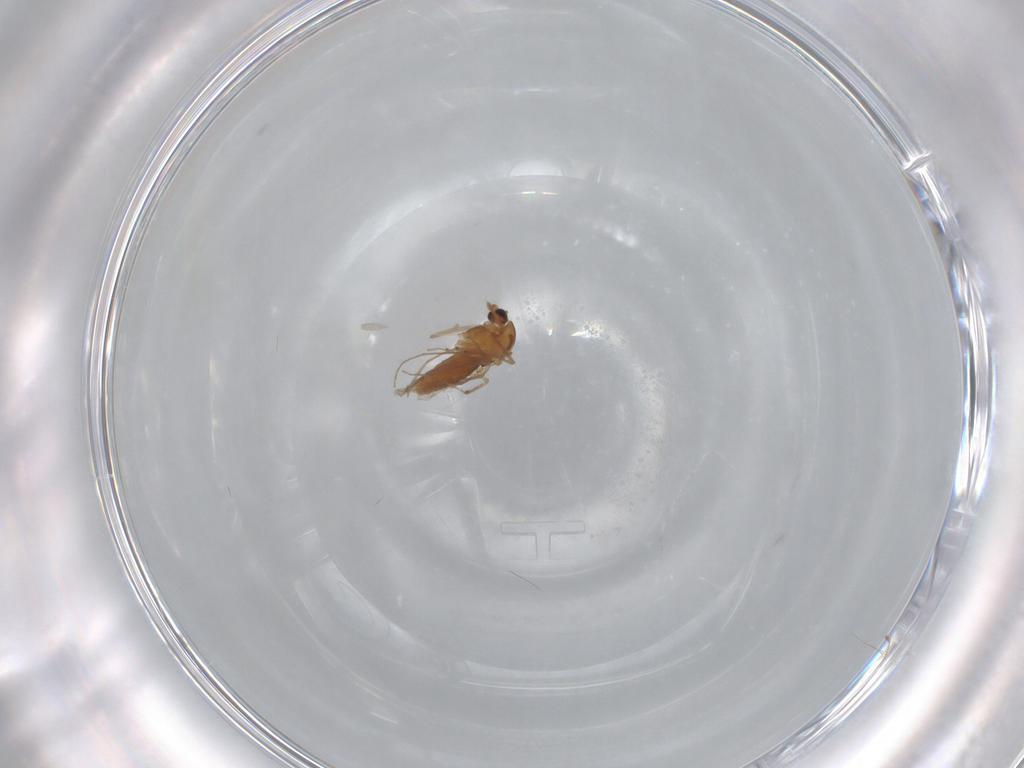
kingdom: Animalia
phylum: Arthropoda
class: Insecta
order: Diptera
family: Chironomidae
